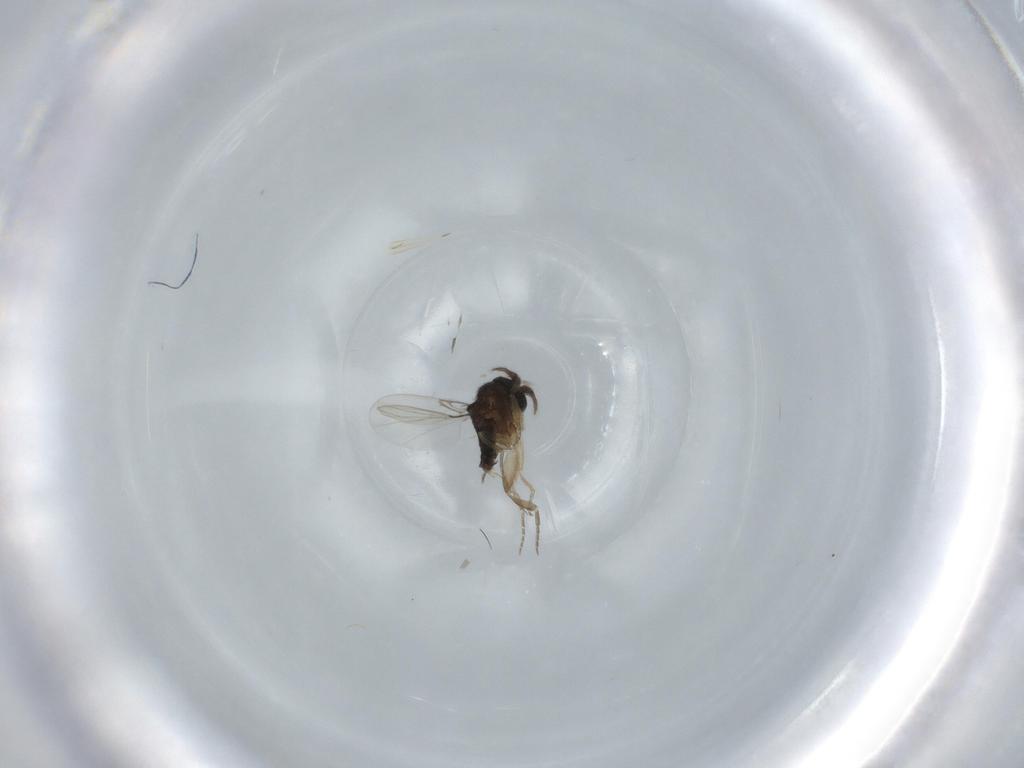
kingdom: Animalia
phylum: Arthropoda
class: Insecta
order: Diptera
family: Phoridae
